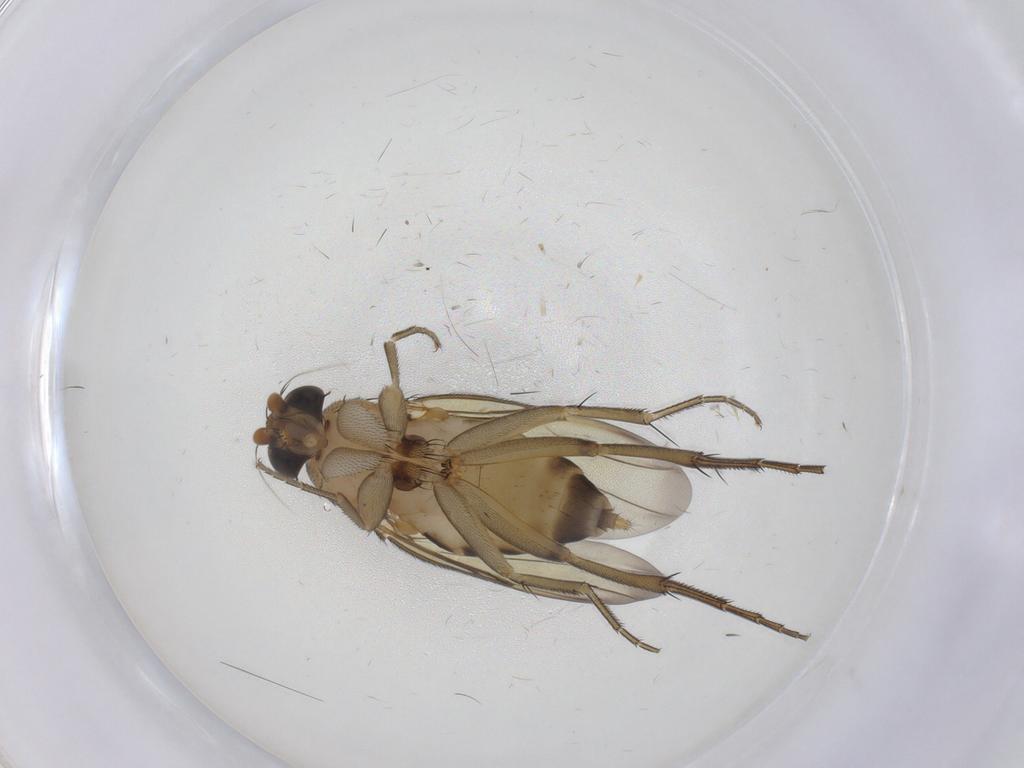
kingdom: Animalia
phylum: Arthropoda
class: Insecta
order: Diptera
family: Phoridae
